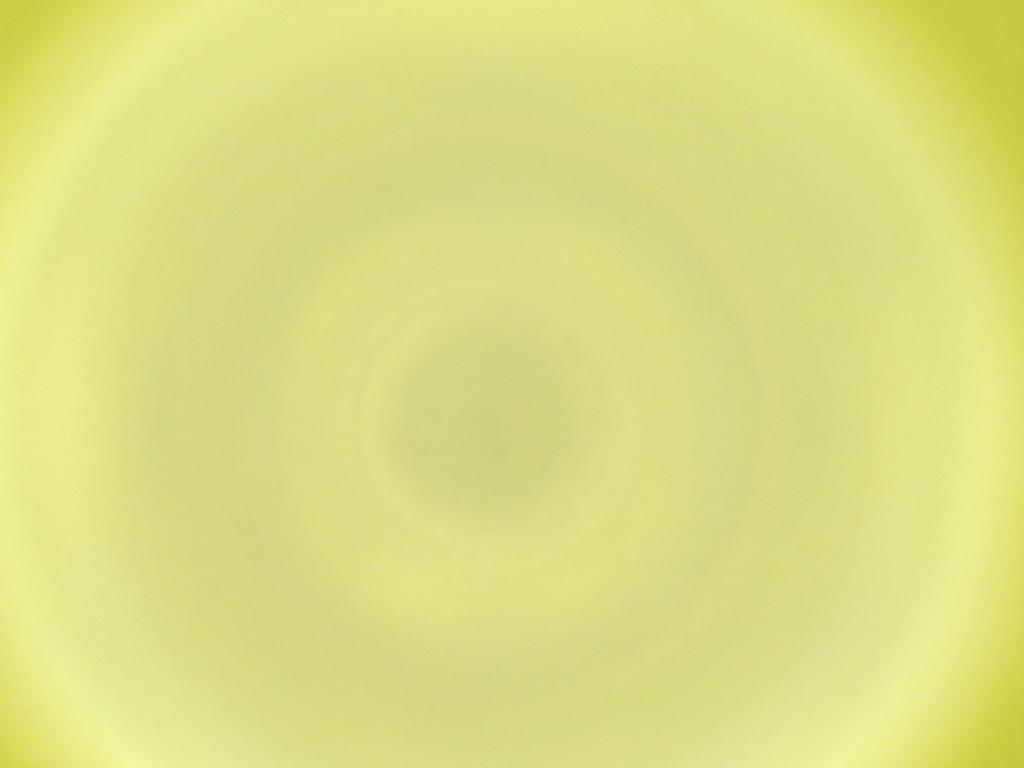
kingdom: Animalia
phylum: Arthropoda
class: Insecta
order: Diptera
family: Cecidomyiidae
